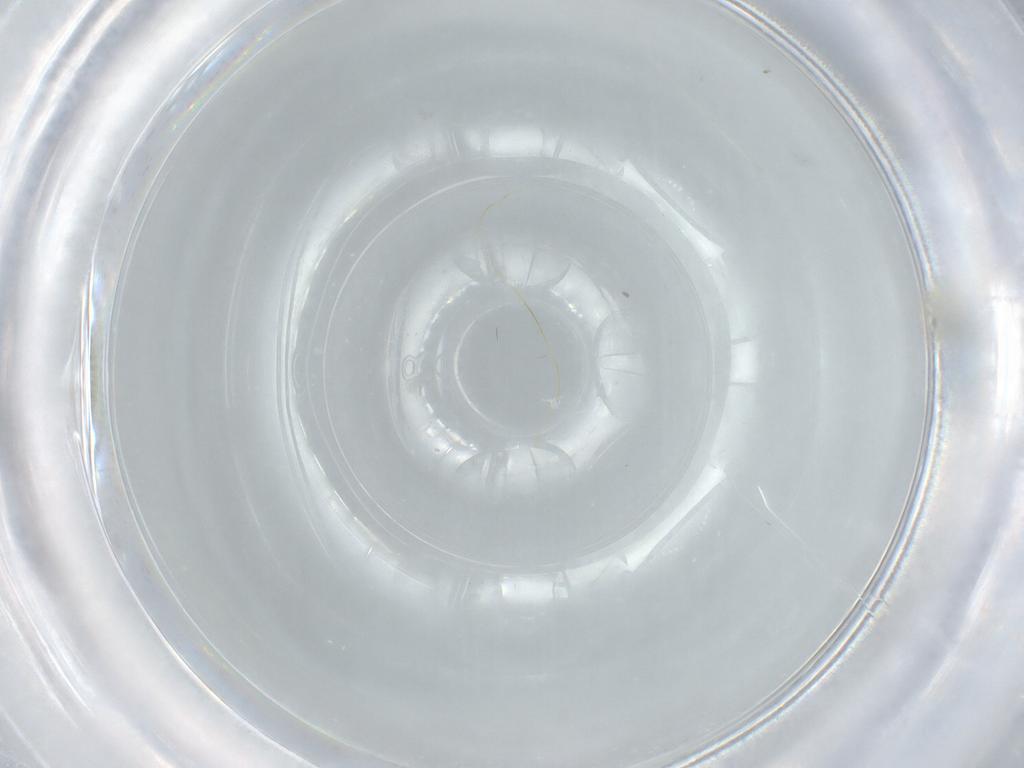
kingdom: Animalia
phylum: Arthropoda
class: Insecta
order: Hemiptera
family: Aleyrodidae
